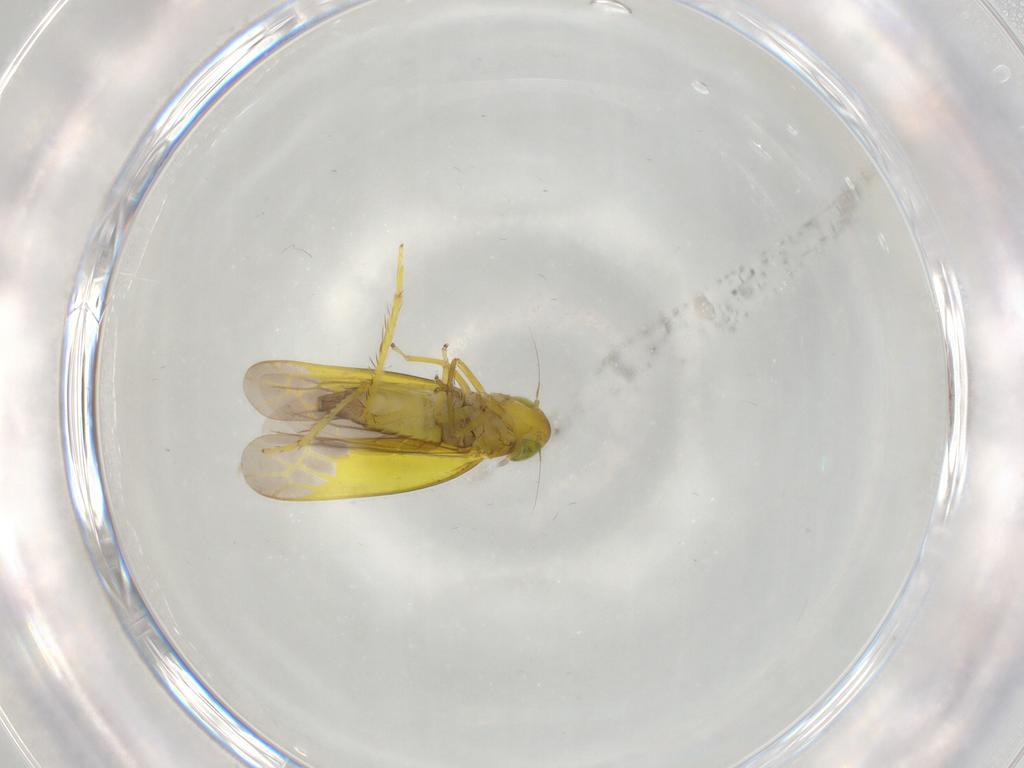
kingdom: Animalia
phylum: Arthropoda
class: Insecta
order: Hemiptera
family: Cicadellidae
